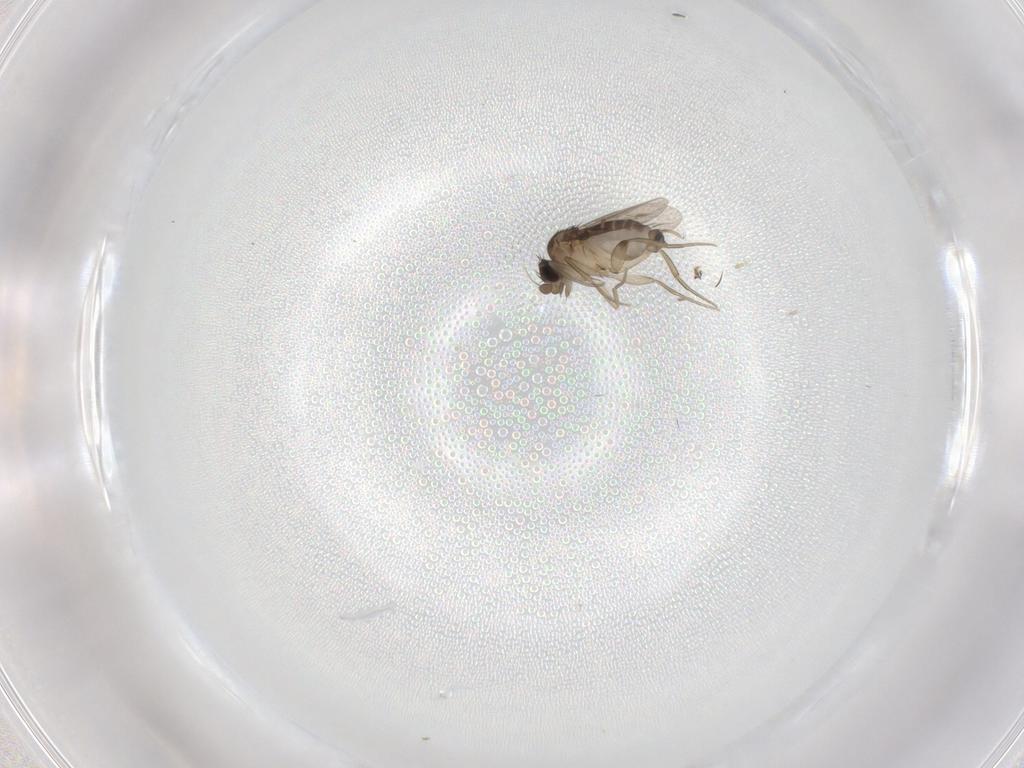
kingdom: Animalia
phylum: Arthropoda
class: Insecta
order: Diptera
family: Phoridae
